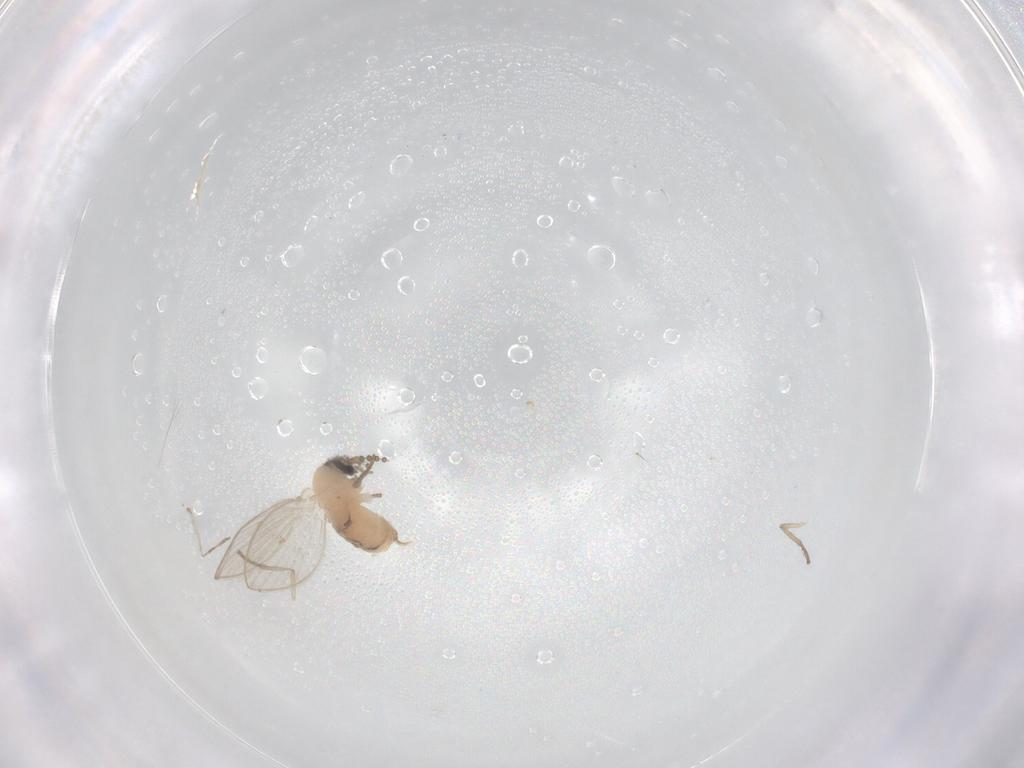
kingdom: Animalia
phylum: Arthropoda
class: Insecta
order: Diptera
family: Psychodidae
